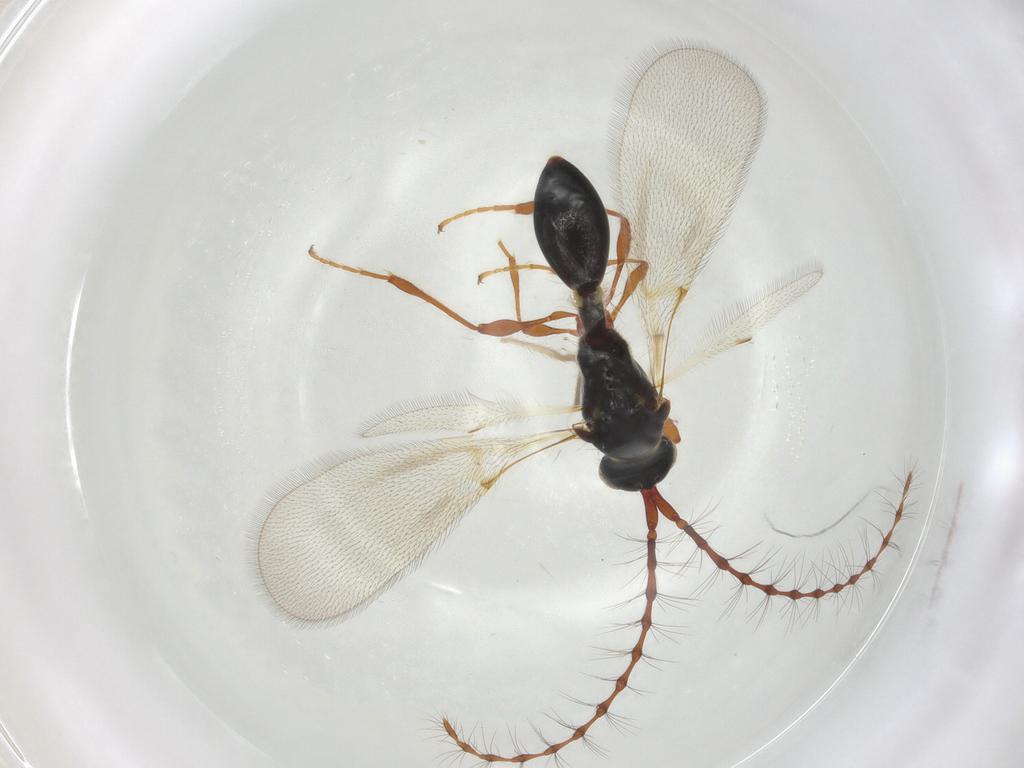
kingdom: Animalia
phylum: Arthropoda
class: Insecta
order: Hymenoptera
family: Diapriidae
